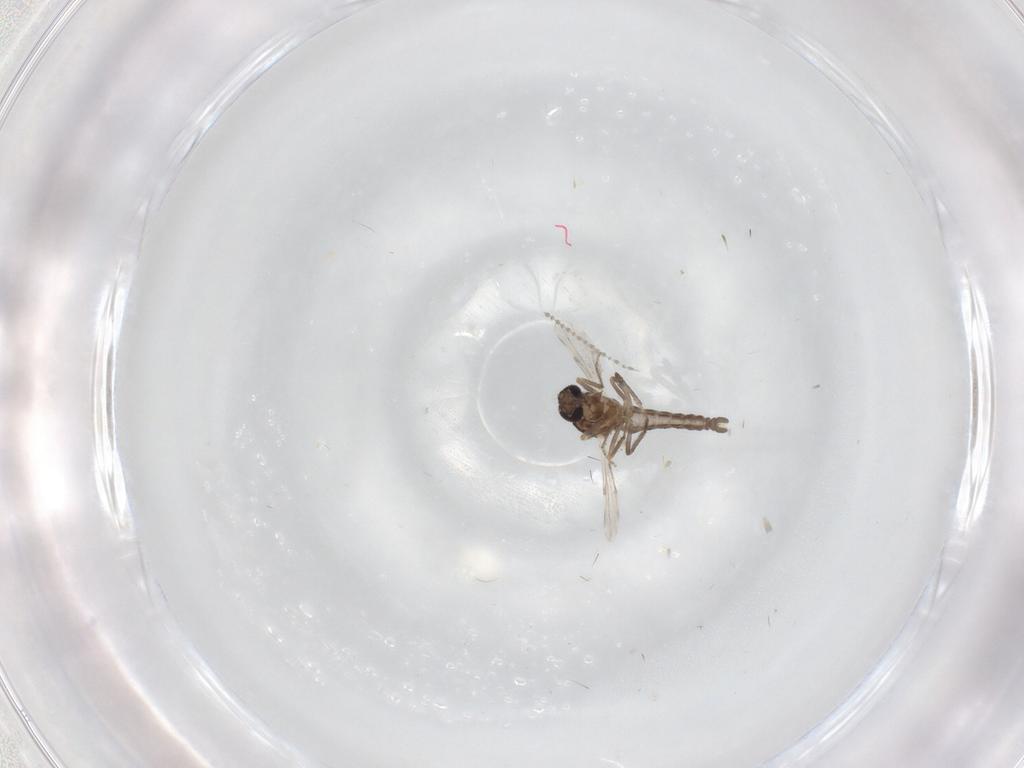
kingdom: Animalia
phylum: Arthropoda
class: Insecta
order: Diptera
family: Ceratopogonidae
